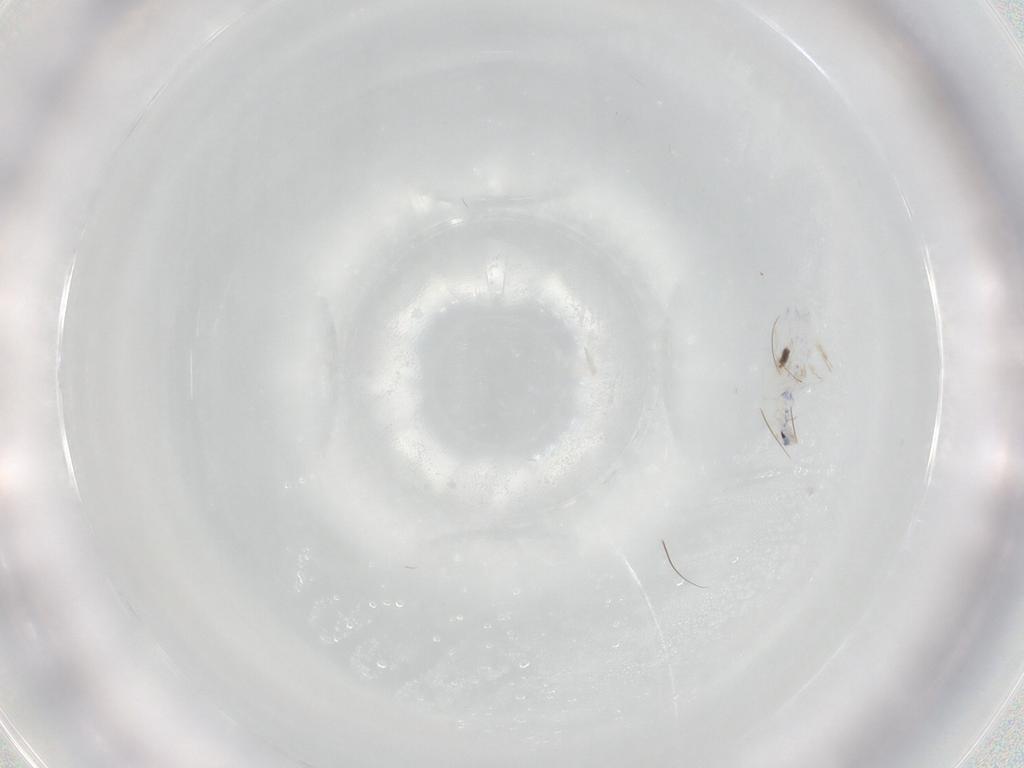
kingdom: Animalia
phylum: Arthropoda
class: Collembola
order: Entomobryomorpha
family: Entomobryidae
